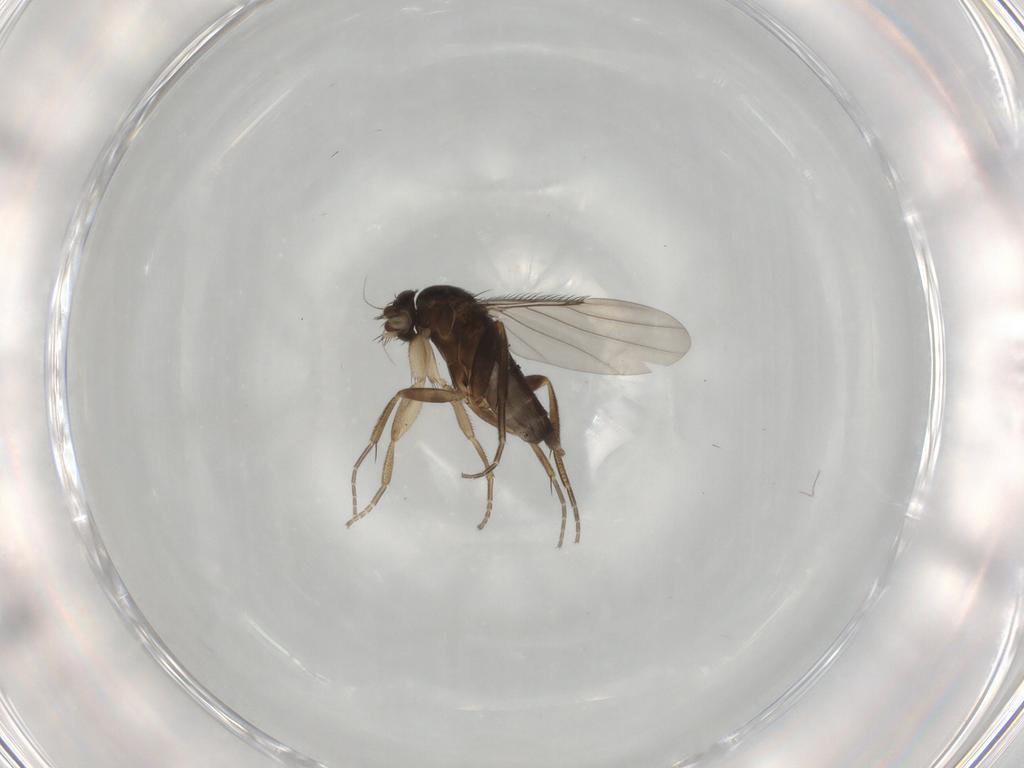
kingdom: Animalia
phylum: Arthropoda
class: Insecta
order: Diptera
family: Phoridae
